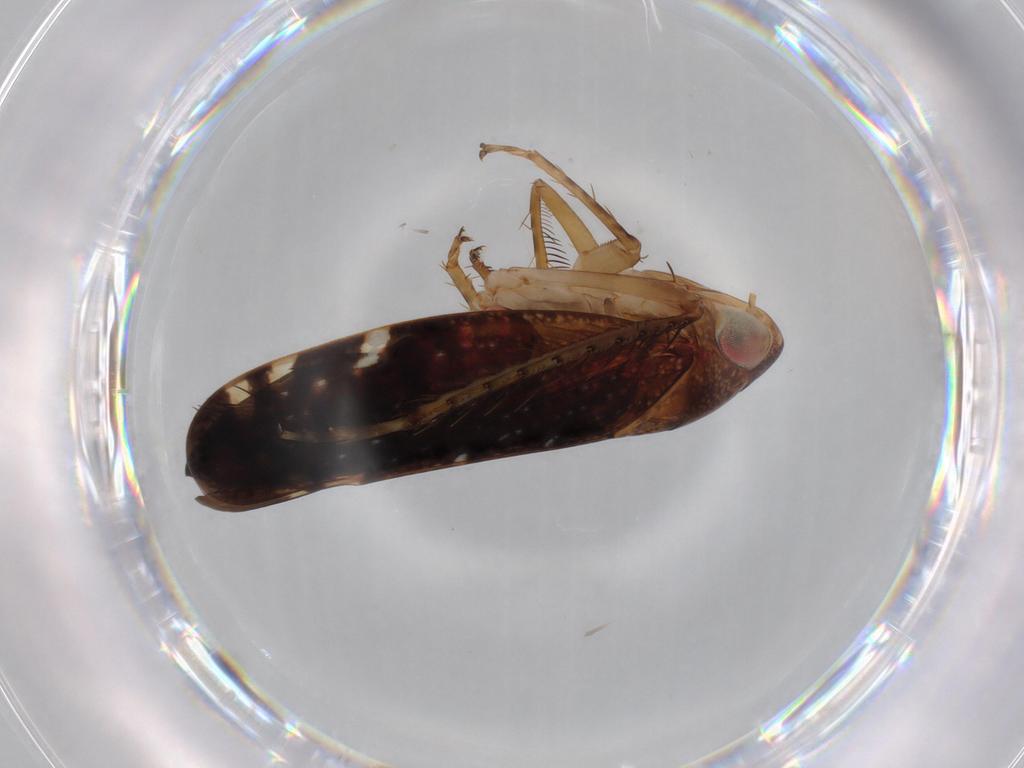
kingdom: Animalia
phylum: Arthropoda
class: Insecta
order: Hemiptera
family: Cicadellidae
